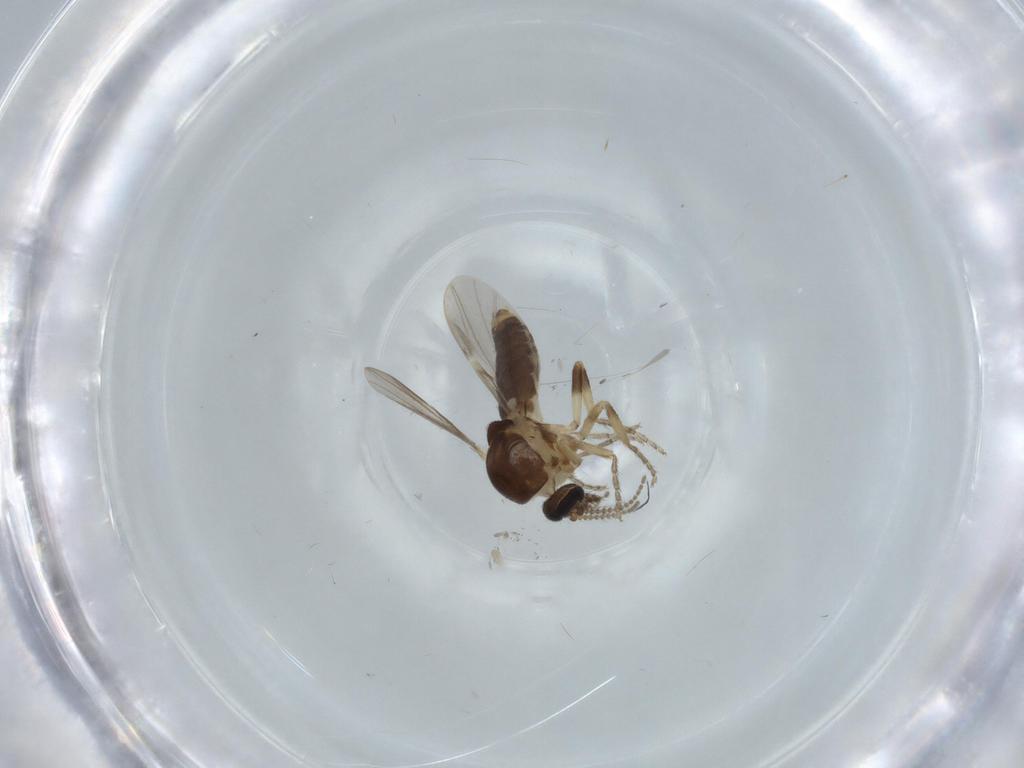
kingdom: Animalia
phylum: Arthropoda
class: Insecta
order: Diptera
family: Ceratopogonidae
